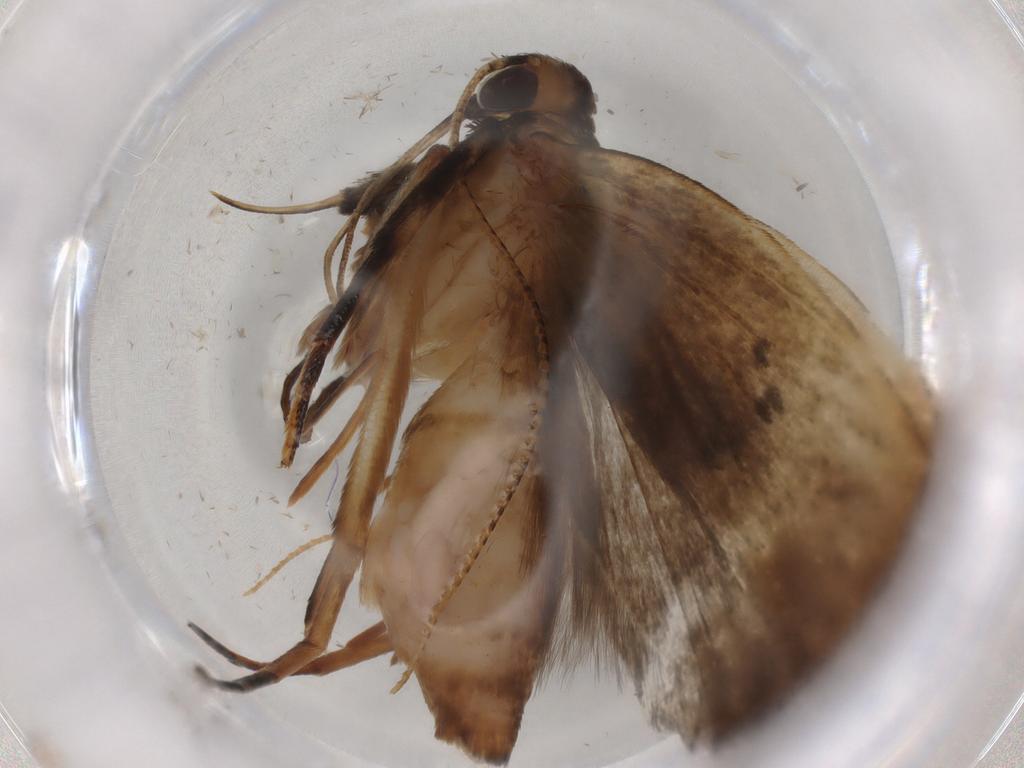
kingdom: Animalia
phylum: Arthropoda
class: Insecta
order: Lepidoptera
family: Gelechiidae
